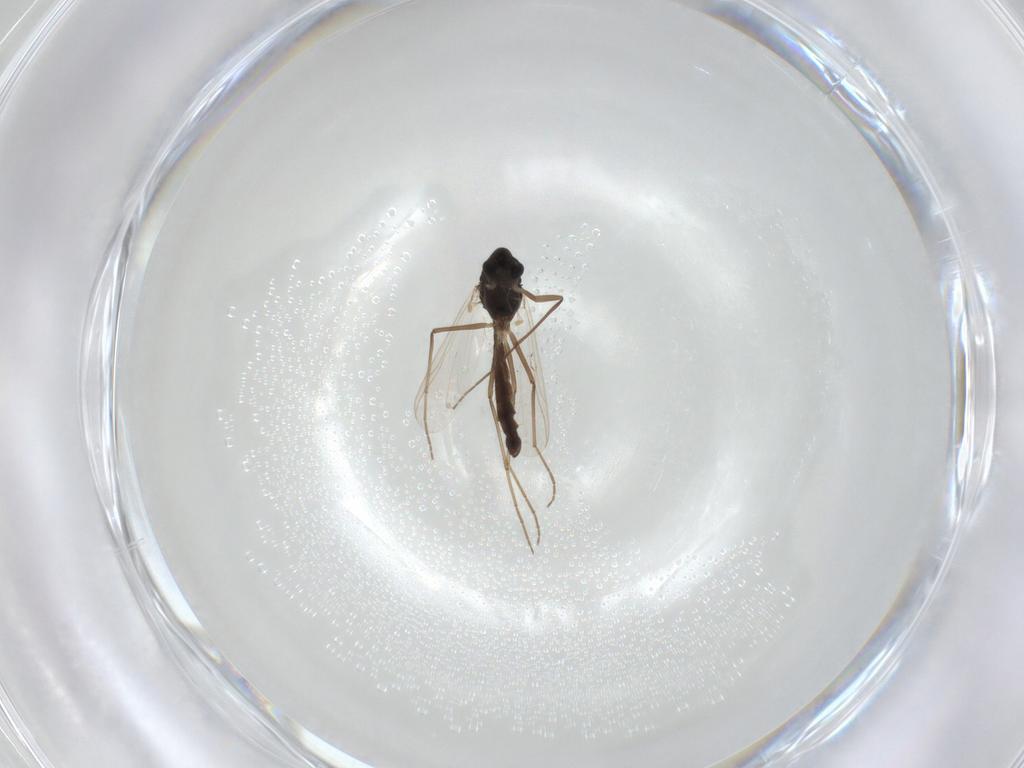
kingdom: Animalia
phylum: Arthropoda
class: Insecta
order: Diptera
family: Chironomidae
